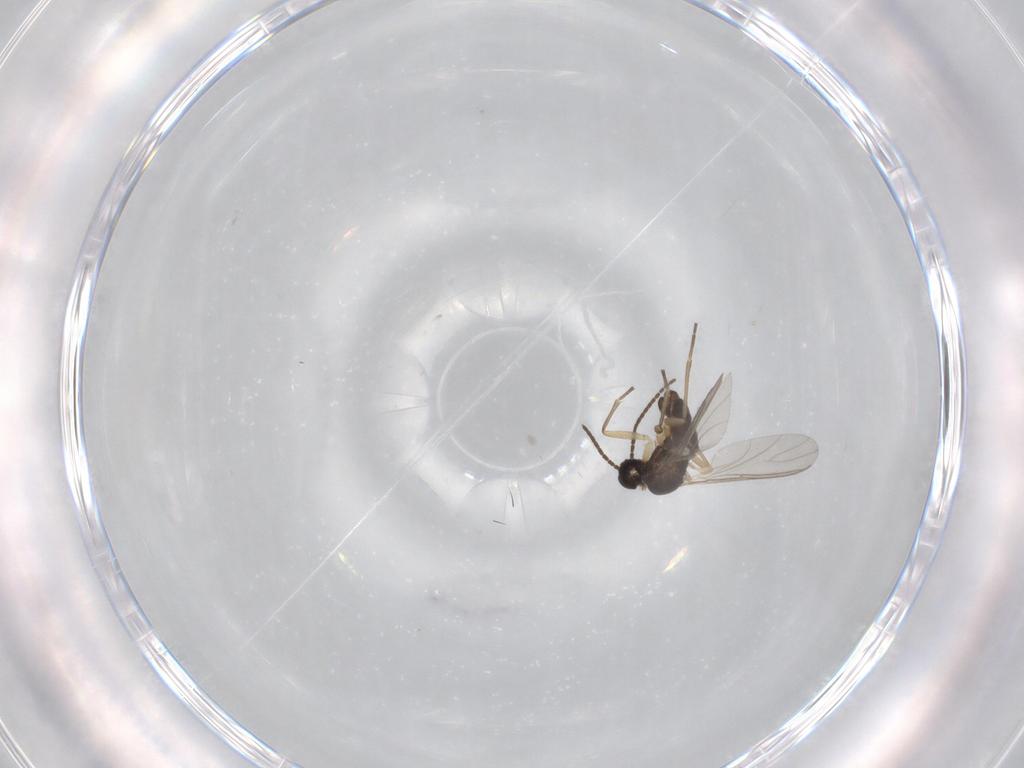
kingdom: Animalia
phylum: Arthropoda
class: Insecta
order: Diptera
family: Sciaridae
